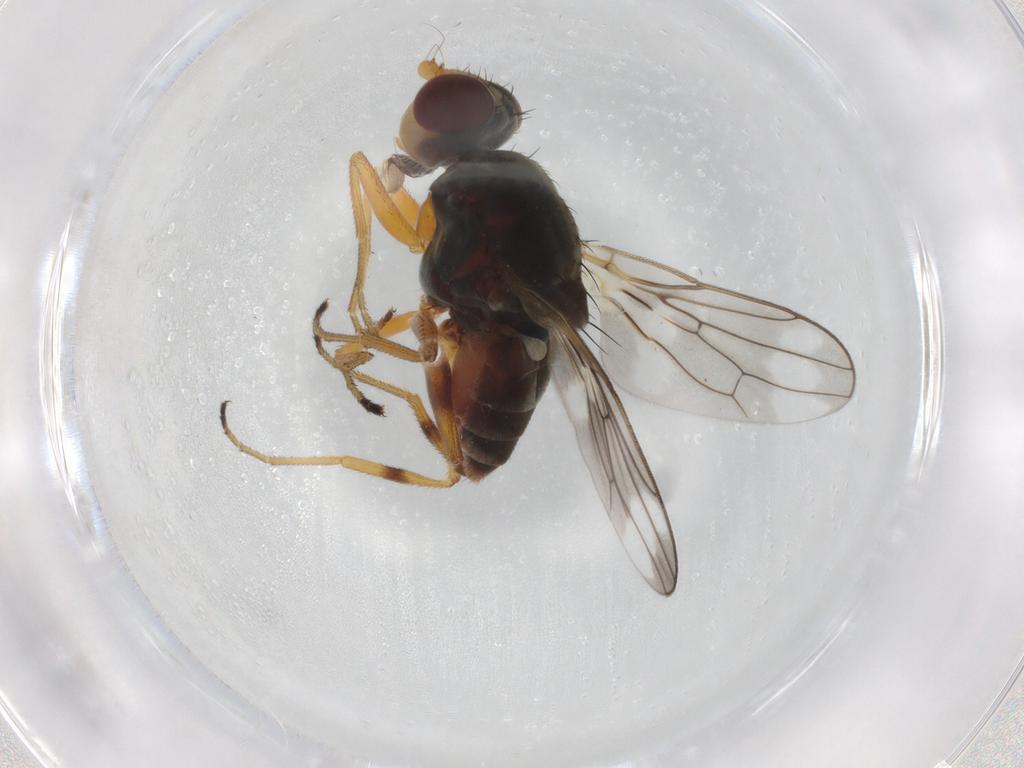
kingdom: Animalia
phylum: Arthropoda
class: Insecta
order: Diptera
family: Chloropidae
